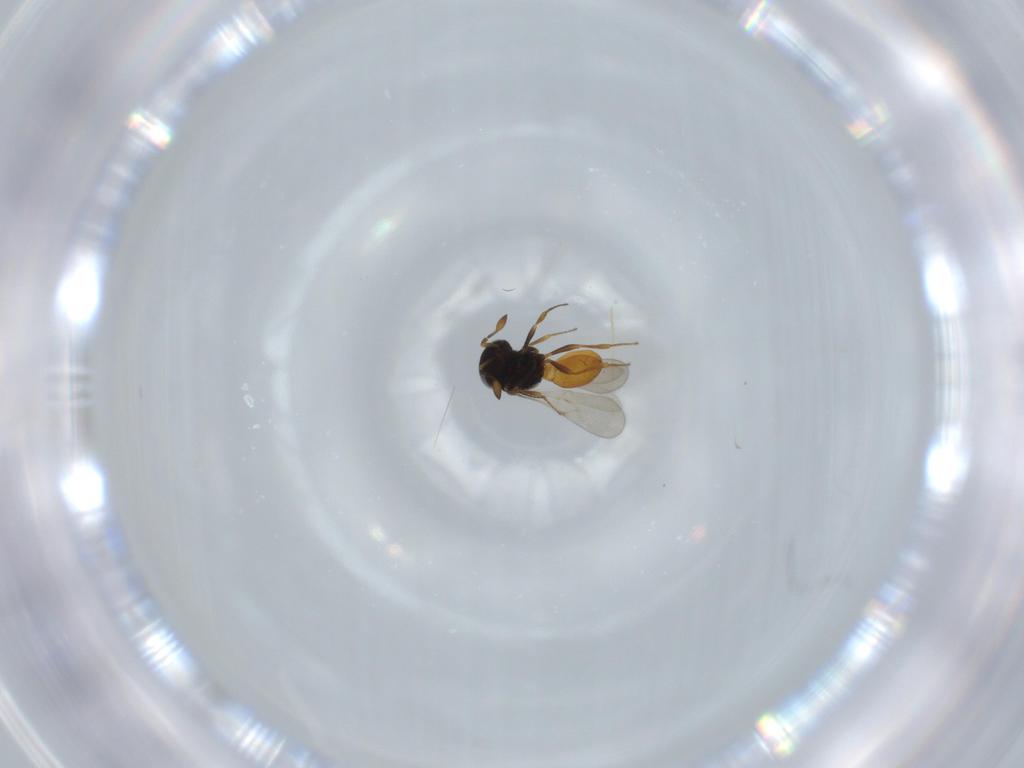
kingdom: Animalia
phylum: Arthropoda
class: Insecta
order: Hymenoptera
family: Scelionidae
